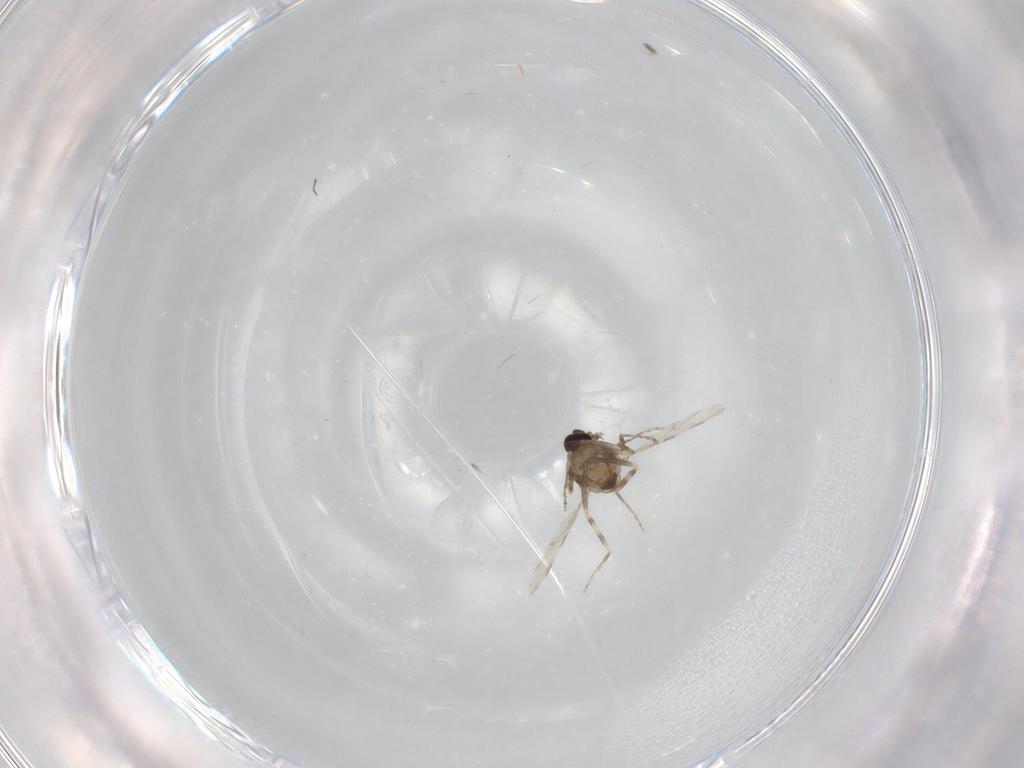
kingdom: Animalia
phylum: Arthropoda
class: Insecta
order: Diptera
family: Ceratopogonidae
